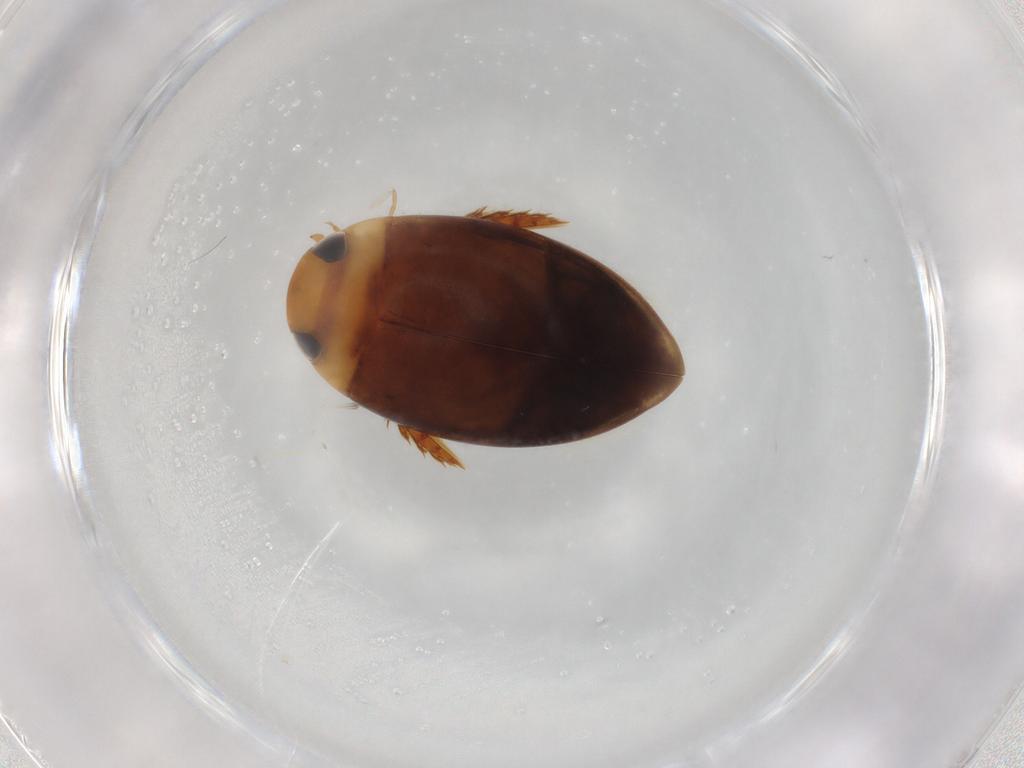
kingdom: Animalia
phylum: Arthropoda
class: Insecta
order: Coleoptera
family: Dytiscidae
